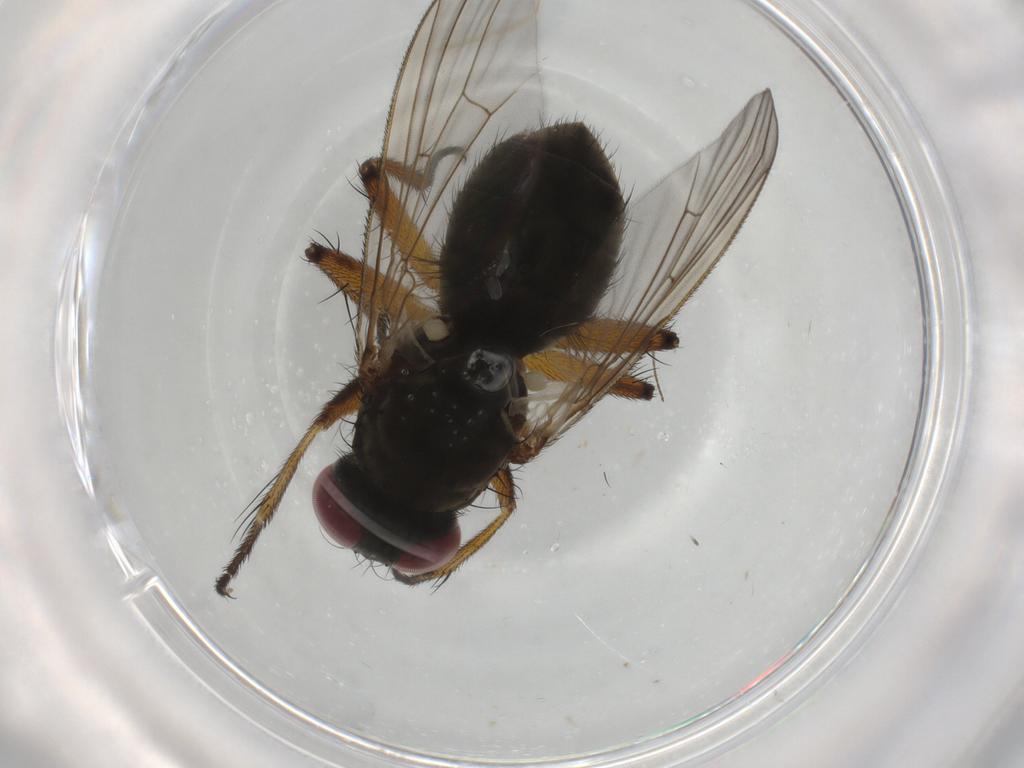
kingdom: Animalia
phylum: Arthropoda
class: Insecta
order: Diptera
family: Muscidae
